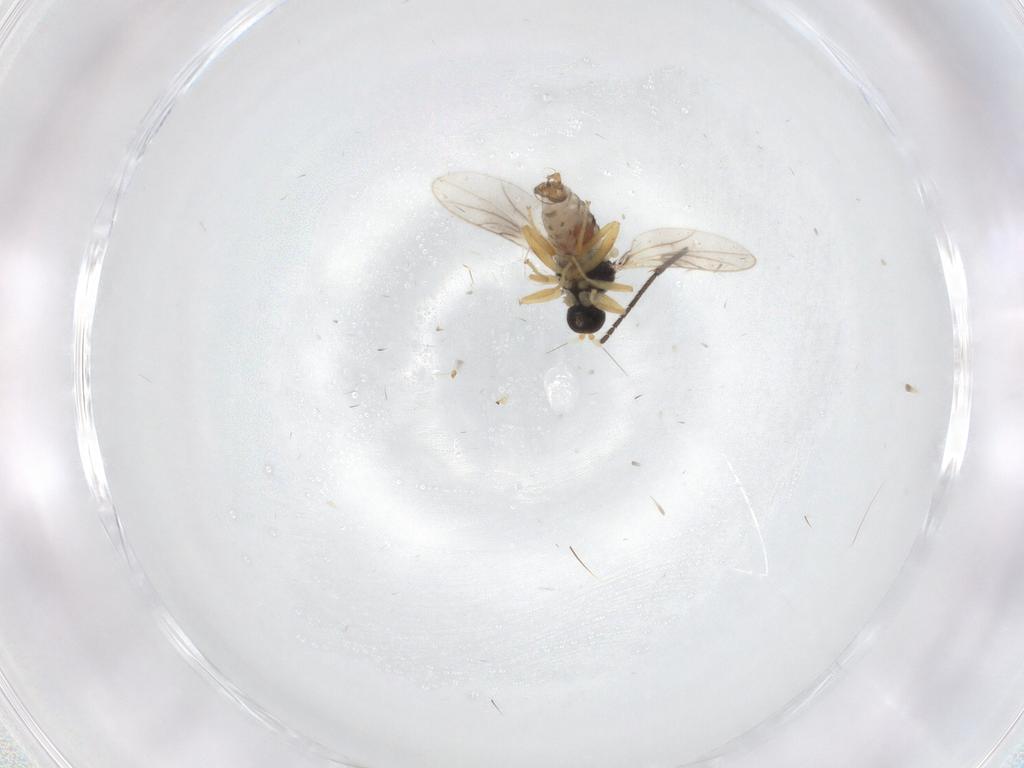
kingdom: Animalia
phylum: Arthropoda
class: Insecta
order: Diptera
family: Hybotidae
